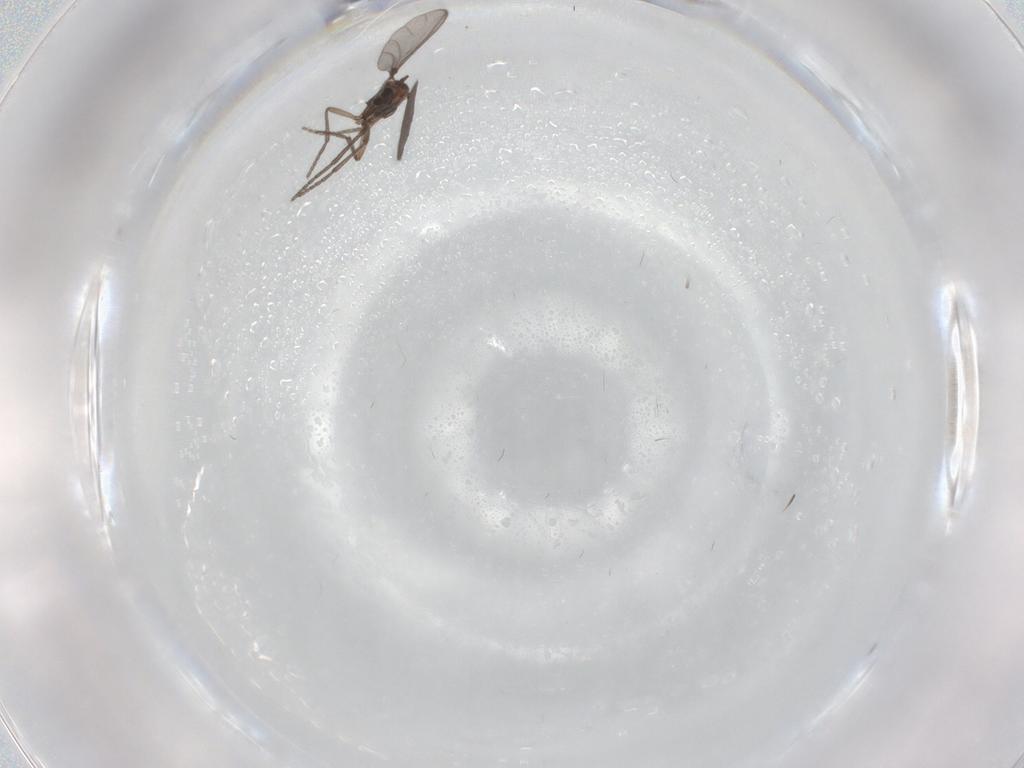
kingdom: Animalia
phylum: Arthropoda
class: Insecta
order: Diptera
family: Sciaridae
